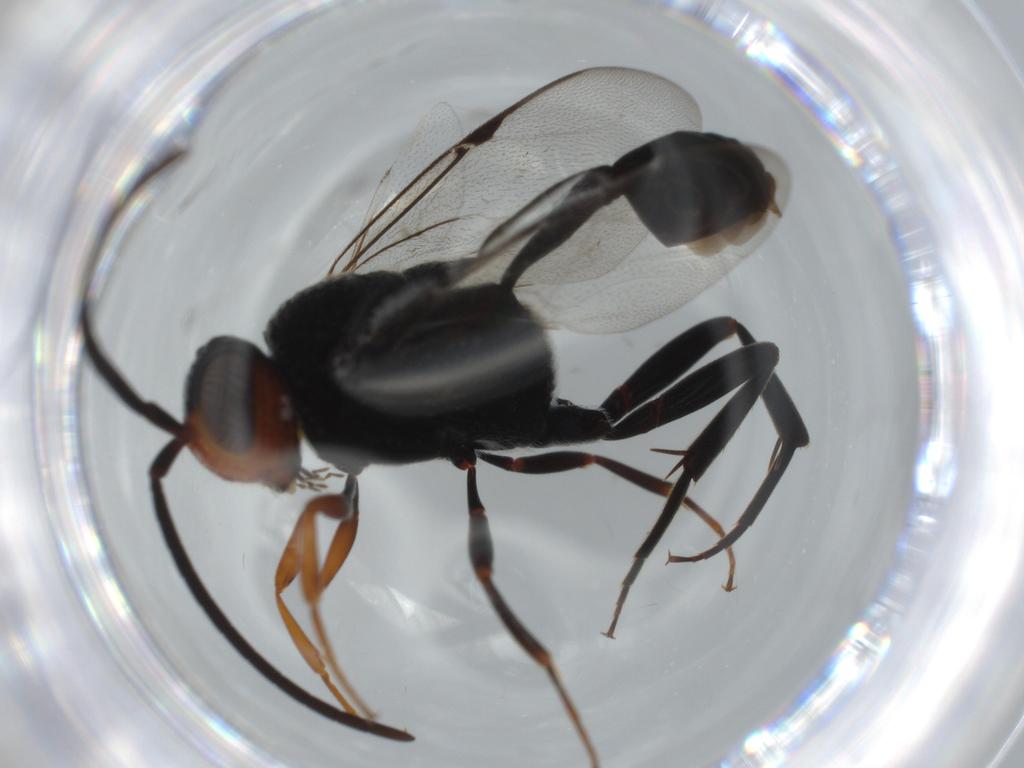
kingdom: Animalia
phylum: Arthropoda
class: Insecta
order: Hymenoptera
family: Evaniidae
